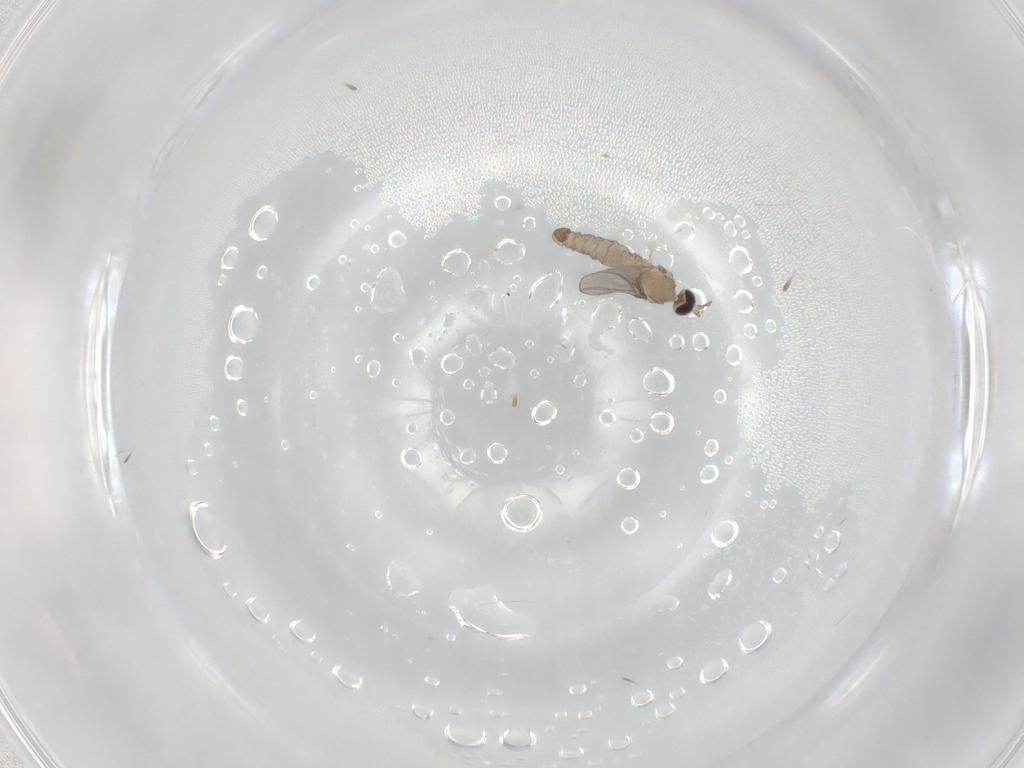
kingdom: Animalia
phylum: Arthropoda
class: Insecta
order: Diptera
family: Cecidomyiidae
